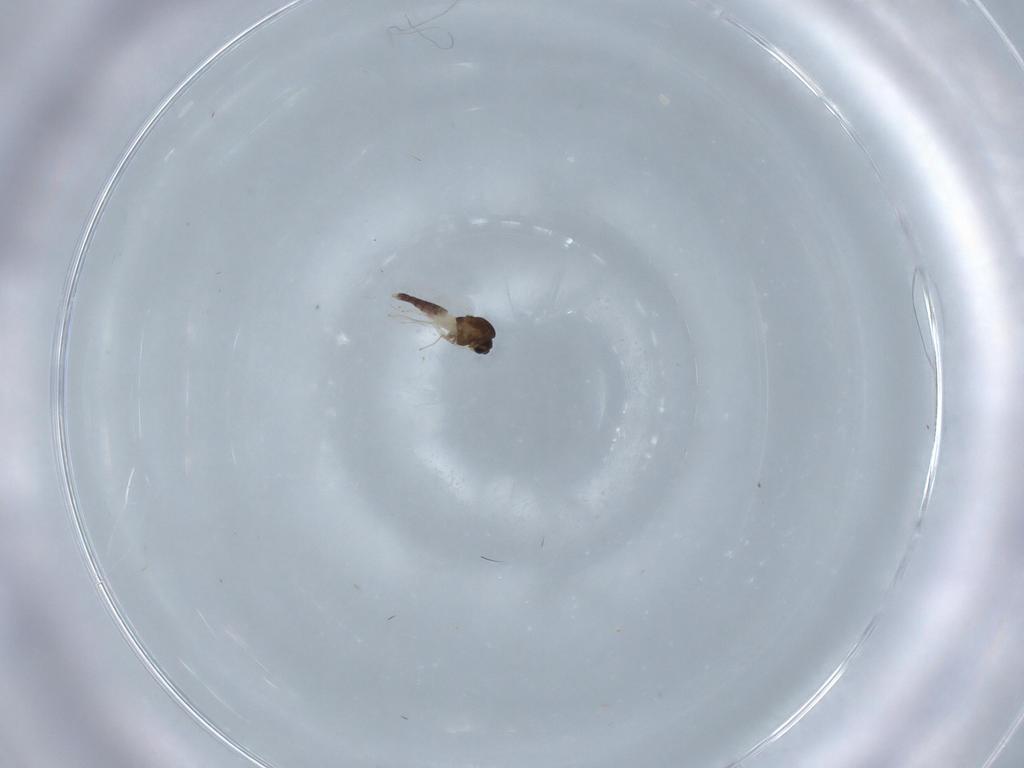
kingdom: Animalia
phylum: Arthropoda
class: Insecta
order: Diptera
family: Chironomidae
